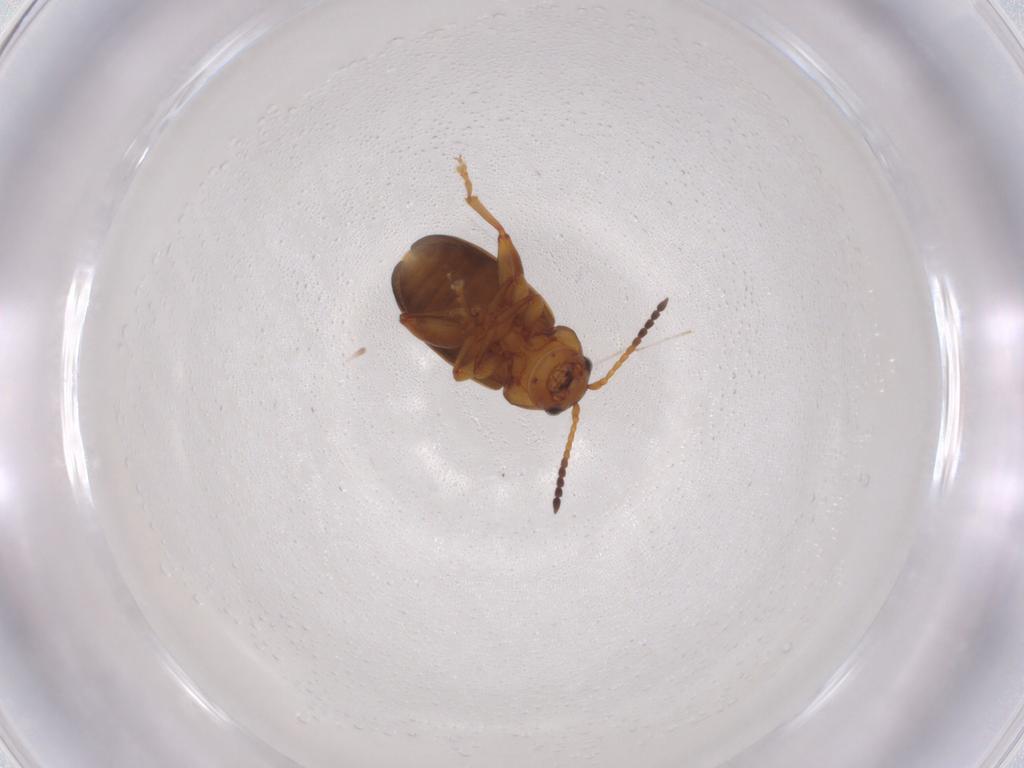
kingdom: Animalia
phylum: Arthropoda
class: Insecta
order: Coleoptera
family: Chrysomelidae
